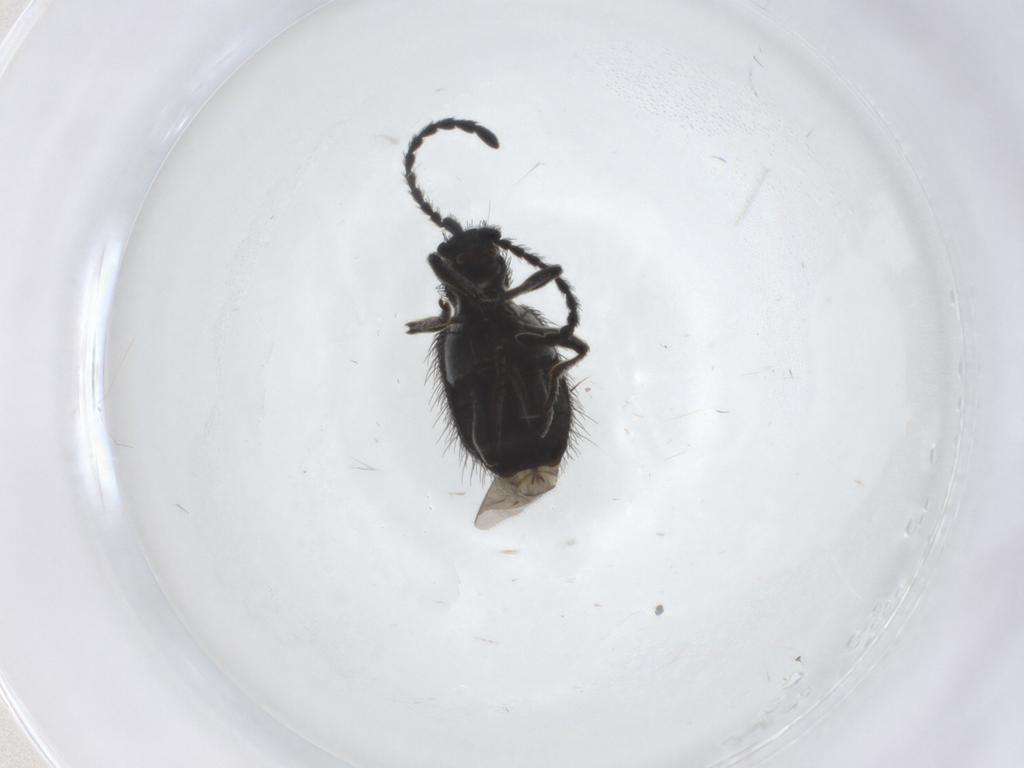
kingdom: Animalia
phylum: Arthropoda
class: Insecta
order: Coleoptera
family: Ptinidae
